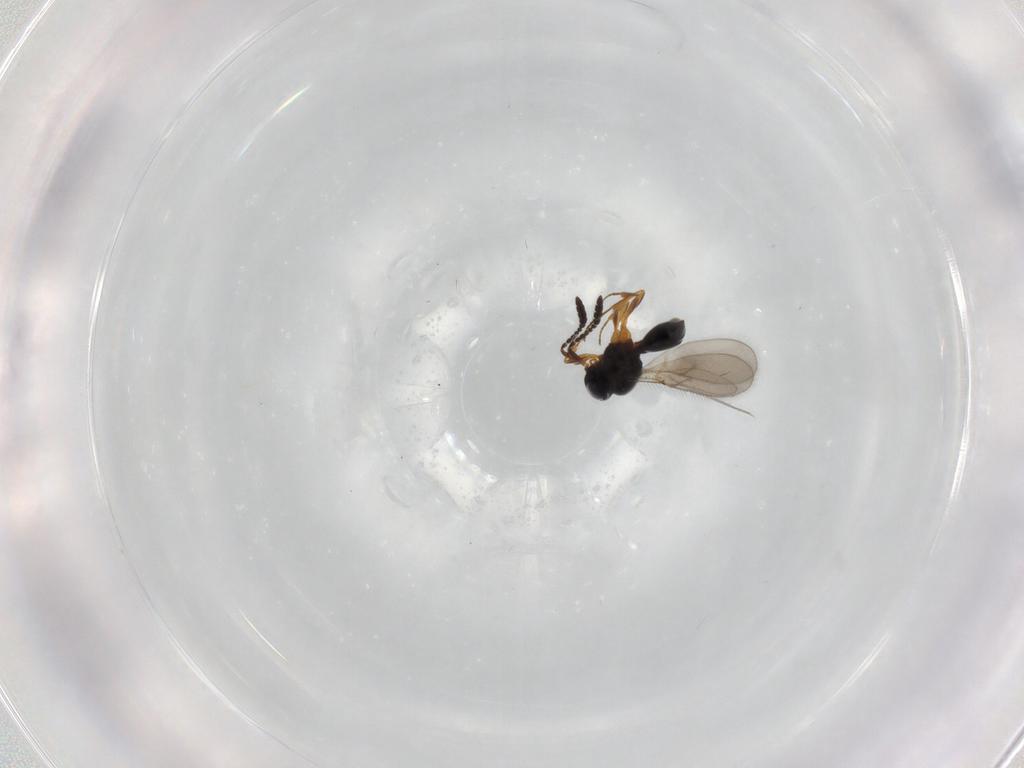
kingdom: Animalia
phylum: Arthropoda
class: Insecta
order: Hymenoptera
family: Scelionidae
